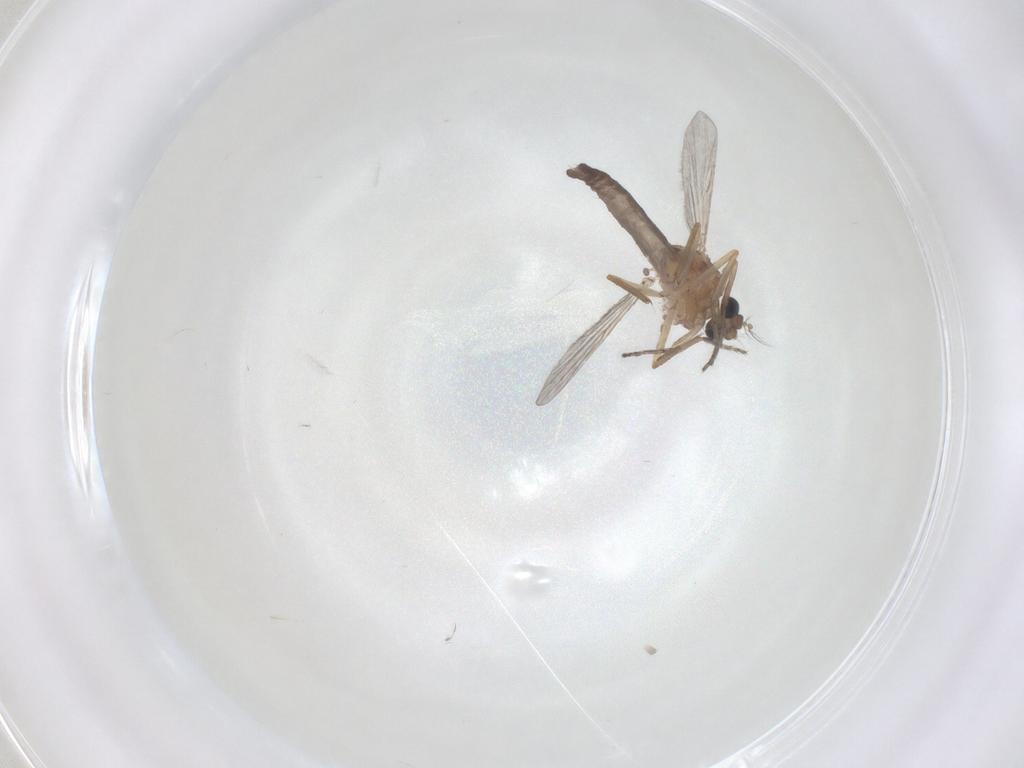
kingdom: Animalia
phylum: Arthropoda
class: Insecta
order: Diptera
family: Ceratopogonidae
